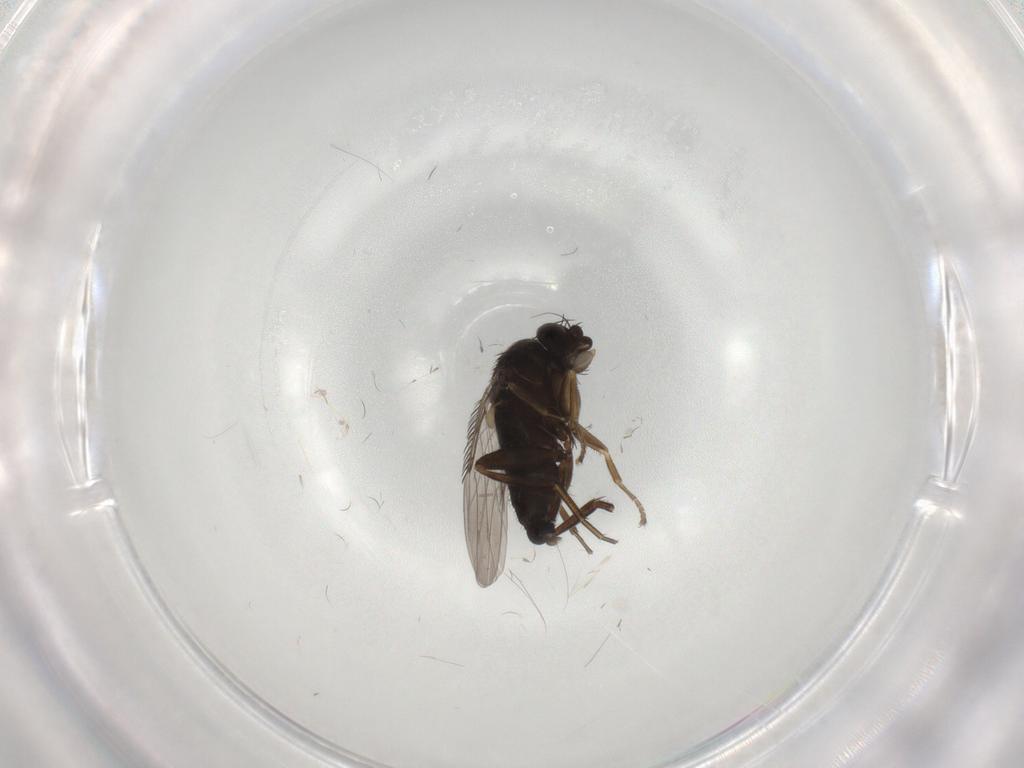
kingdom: Animalia
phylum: Arthropoda
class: Insecta
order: Diptera
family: Phoridae
